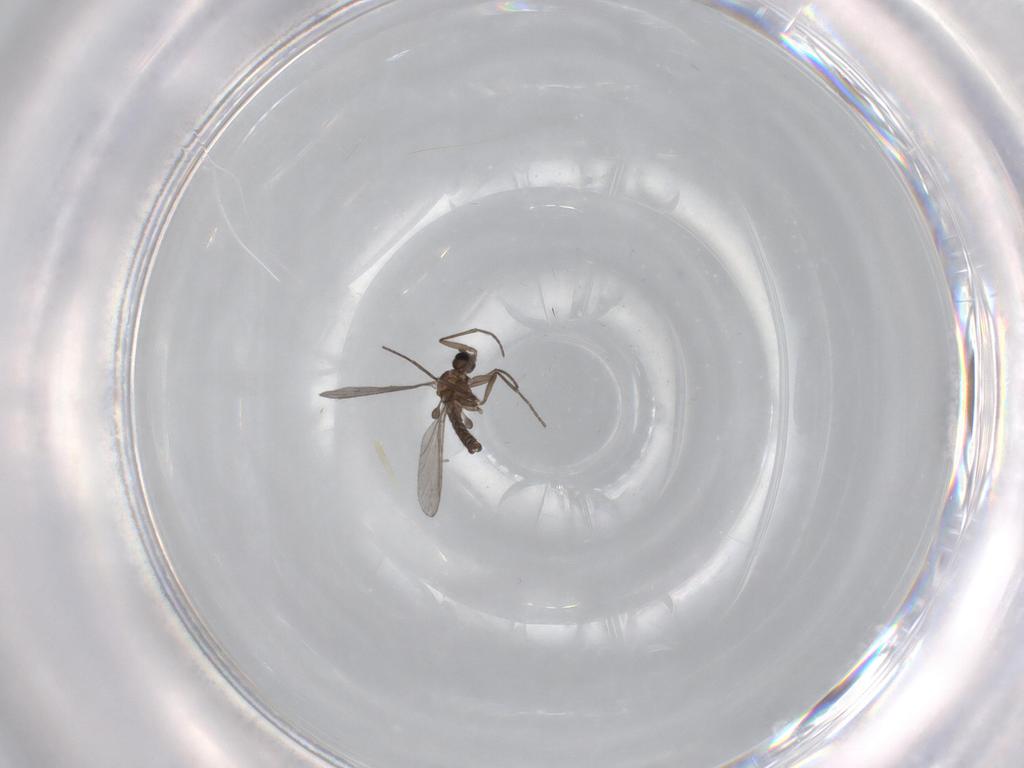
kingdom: Animalia
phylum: Arthropoda
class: Insecta
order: Diptera
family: Sciaridae
